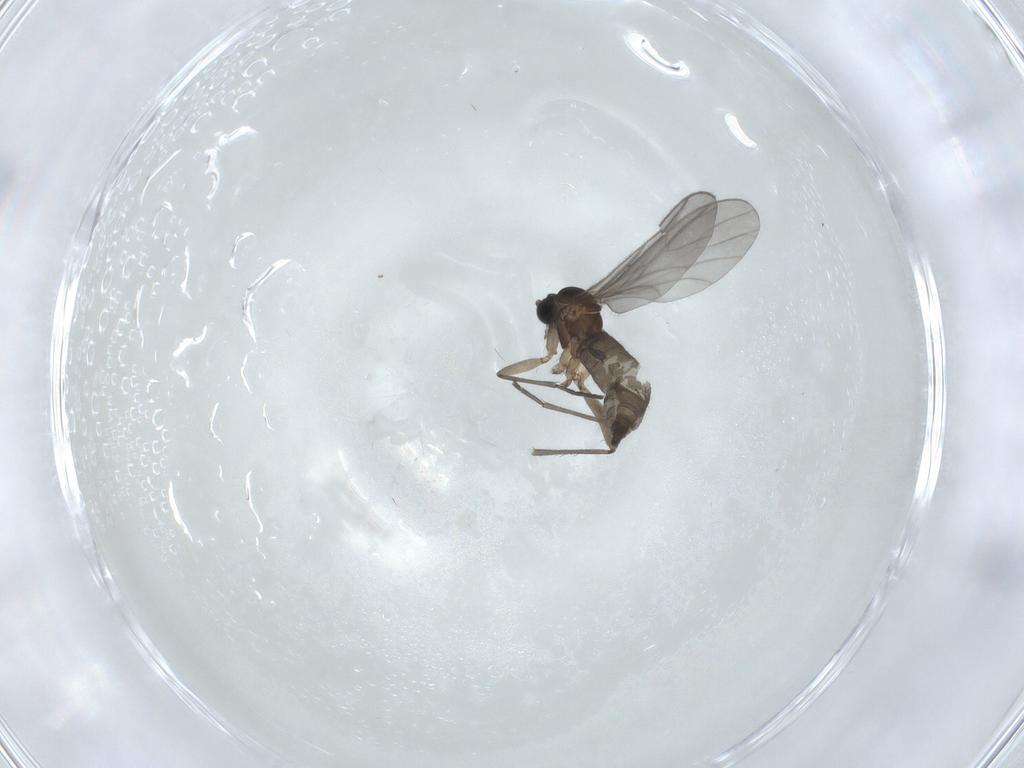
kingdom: Animalia
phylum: Arthropoda
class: Insecta
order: Diptera
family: Sciaridae
